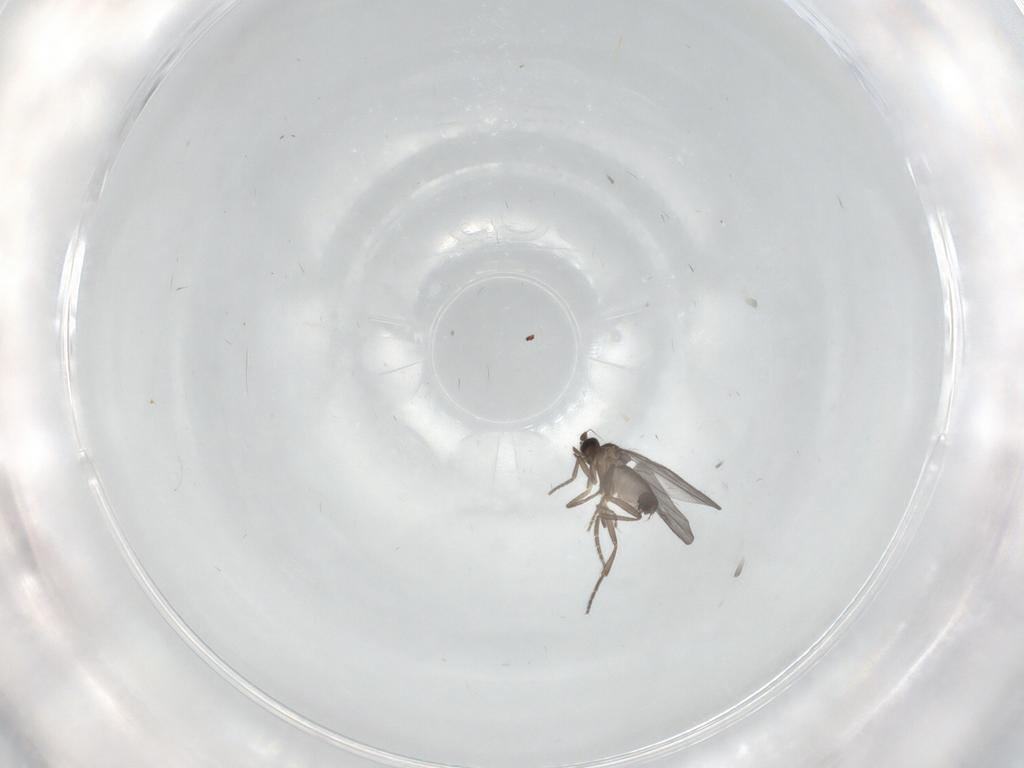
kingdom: Animalia
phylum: Arthropoda
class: Insecta
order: Diptera
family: Phoridae
